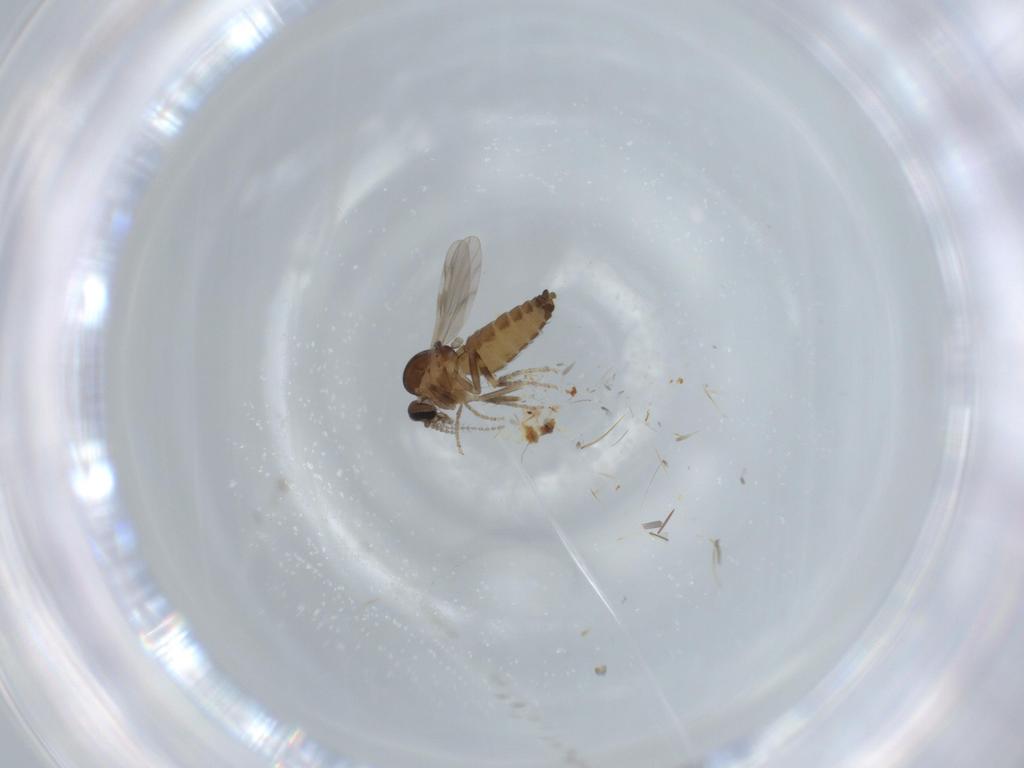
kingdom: Animalia
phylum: Arthropoda
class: Insecta
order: Diptera
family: Ceratopogonidae
